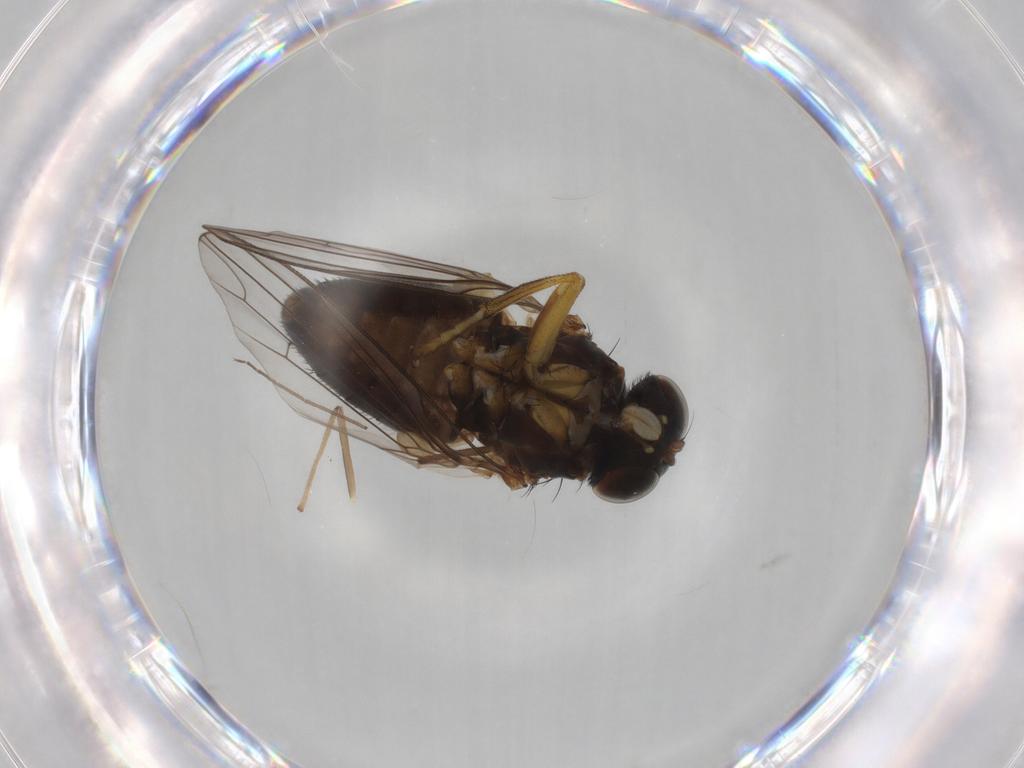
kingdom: Animalia
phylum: Arthropoda
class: Insecta
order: Diptera
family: Platypezidae
